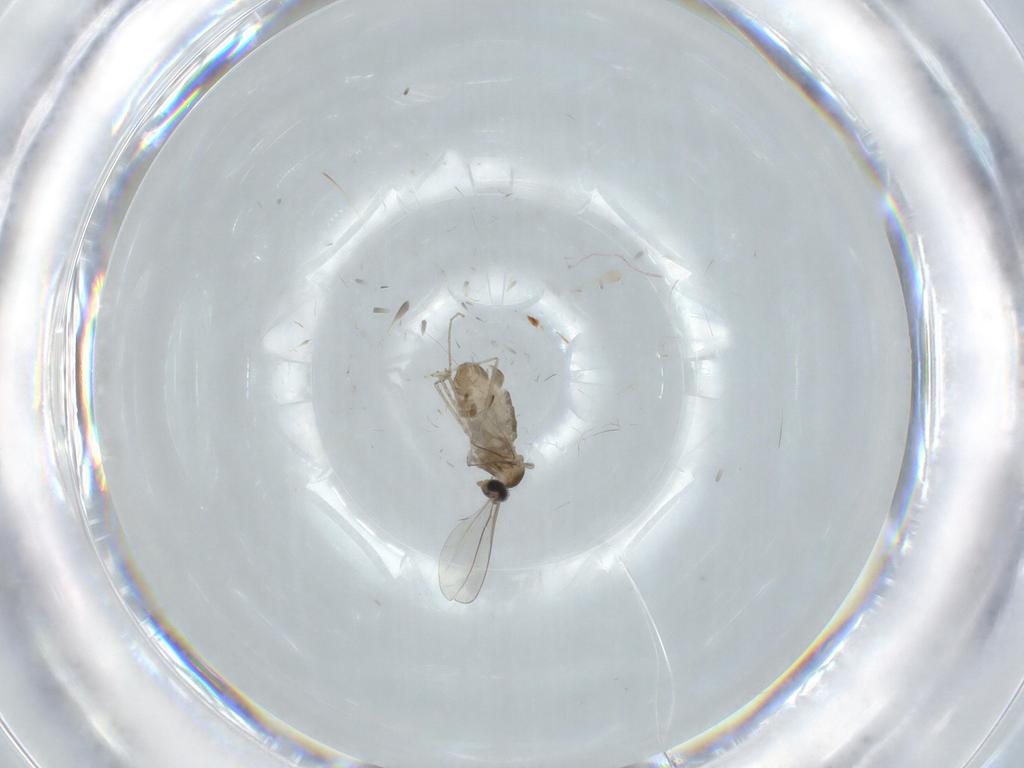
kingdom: Animalia
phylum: Arthropoda
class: Insecta
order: Diptera
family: Cecidomyiidae
